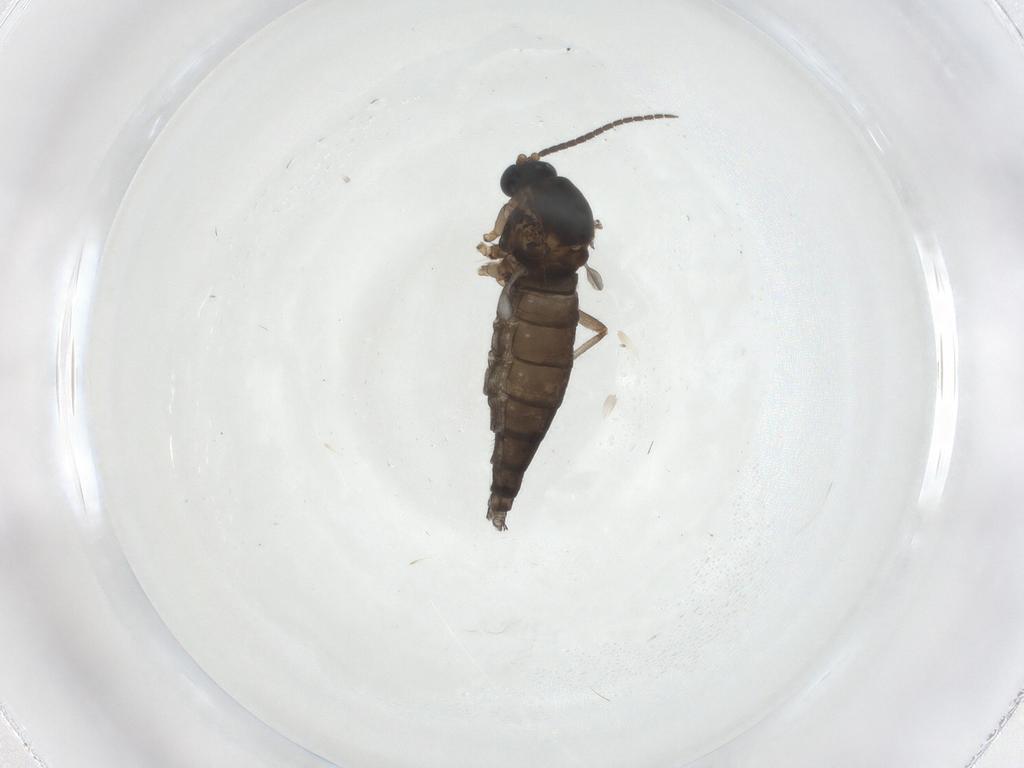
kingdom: Animalia
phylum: Arthropoda
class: Insecta
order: Diptera
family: Sciaridae
